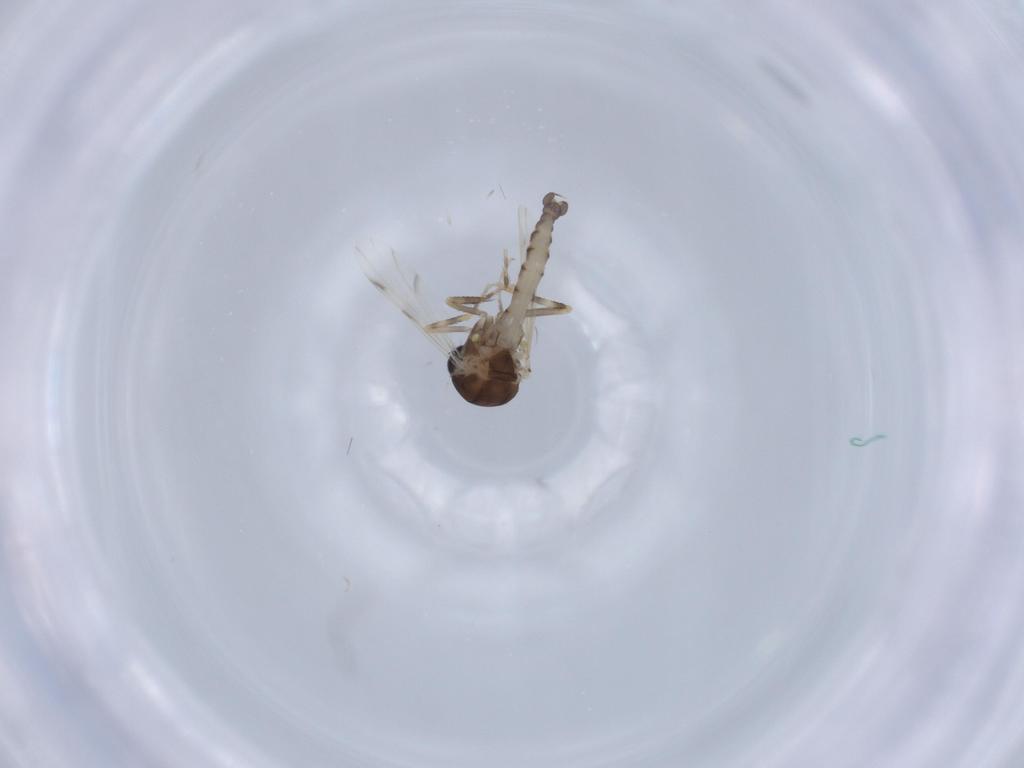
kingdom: Animalia
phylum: Arthropoda
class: Insecta
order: Diptera
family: Ceratopogonidae
